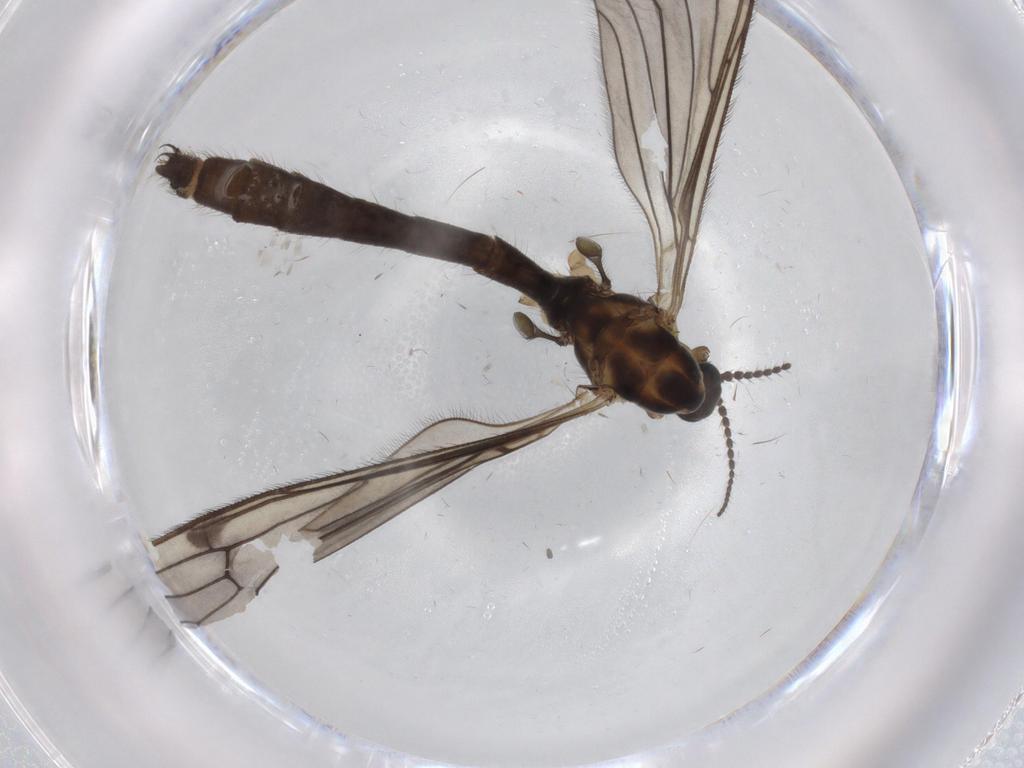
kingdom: Animalia
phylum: Arthropoda
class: Insecta
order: Diptera
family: Limoniidae
